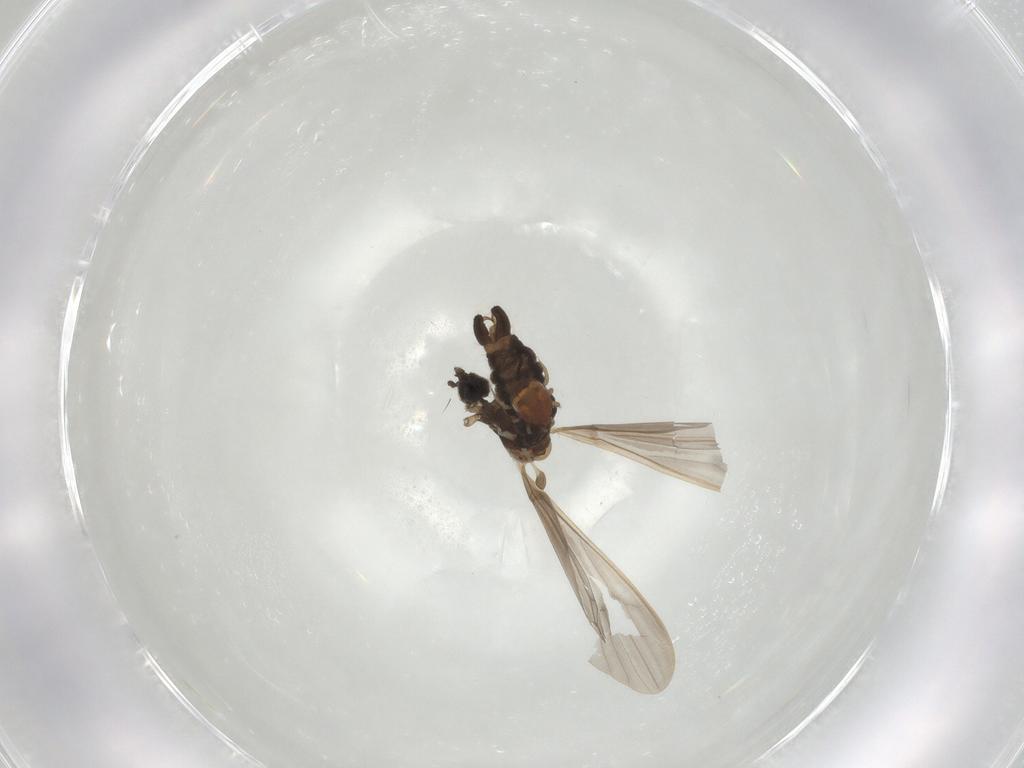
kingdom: Animalia
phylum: Arthropoda
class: Insecta
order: Diptera
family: Limoniidae
